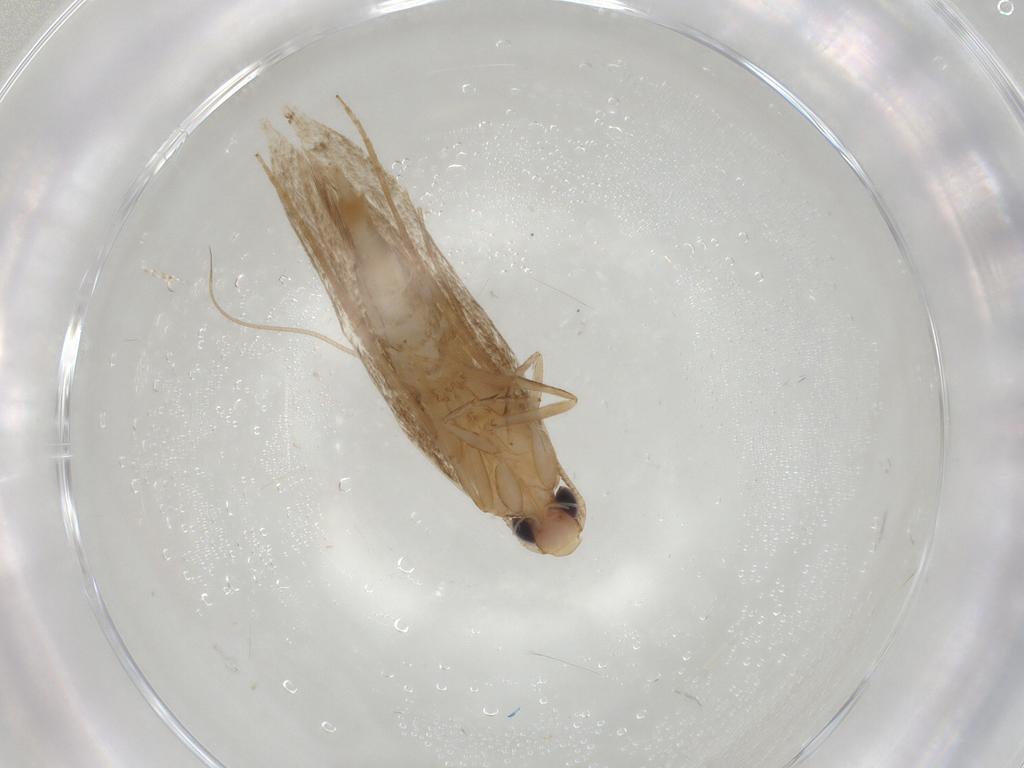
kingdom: Animalia
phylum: Arthropoda
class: Insecta
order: Lepidoptera
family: Tineidae
